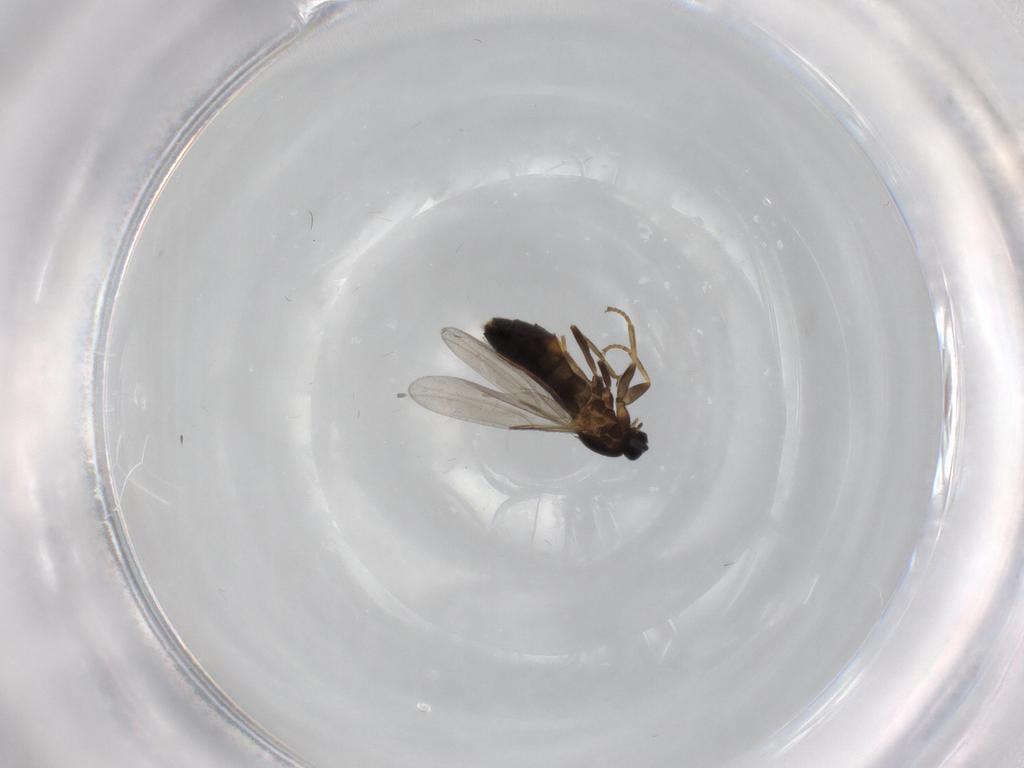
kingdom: Animalia
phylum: Arthropoda
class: Insecta
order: Diptera
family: Scatopsidae
